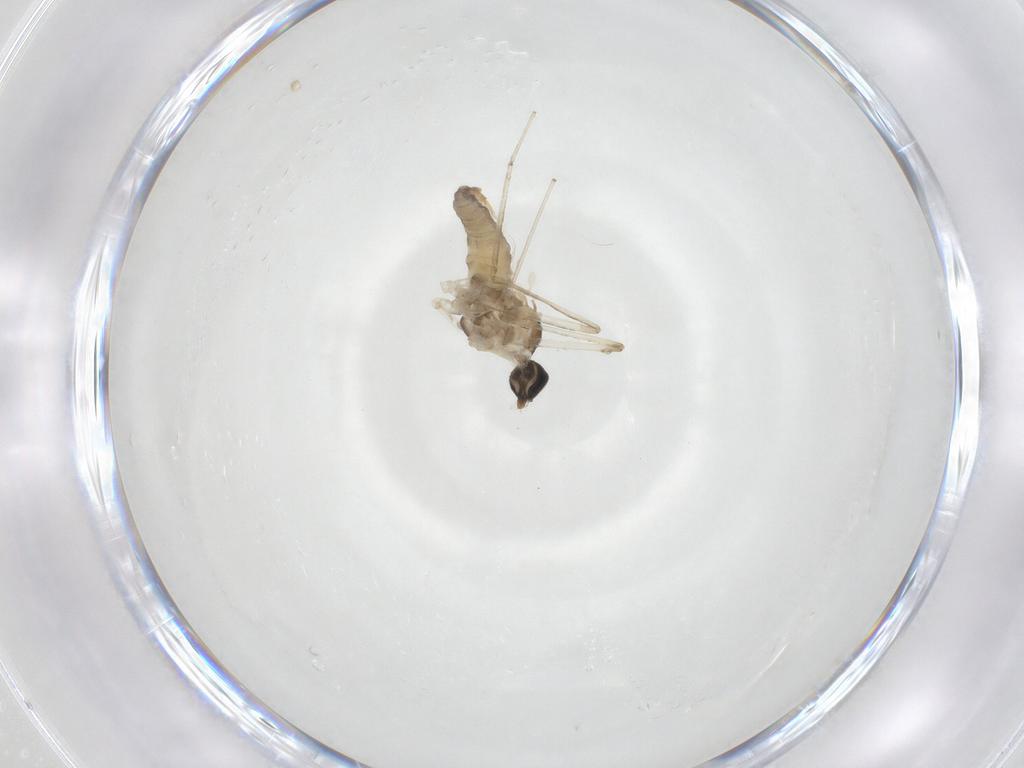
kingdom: Animalia
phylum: Arthropoda
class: Insecta
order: Diptera
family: Cecidomyiidae
